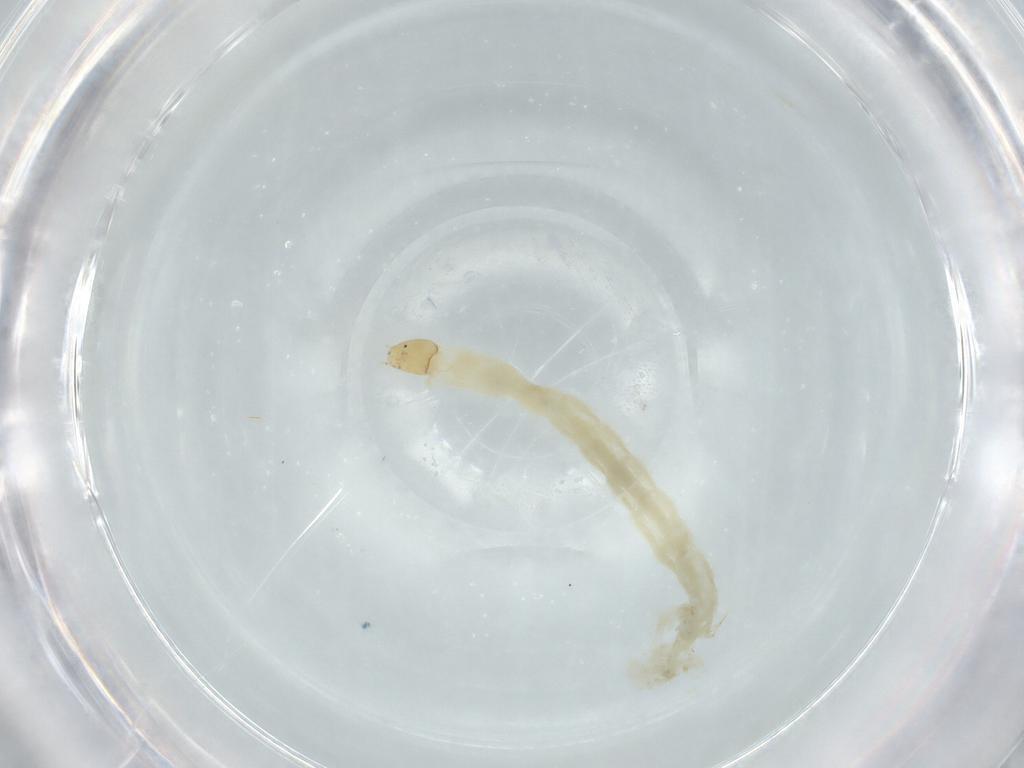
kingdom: Animalia
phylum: Arthropoda
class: Insecta
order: Diptera
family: Chironomidae
